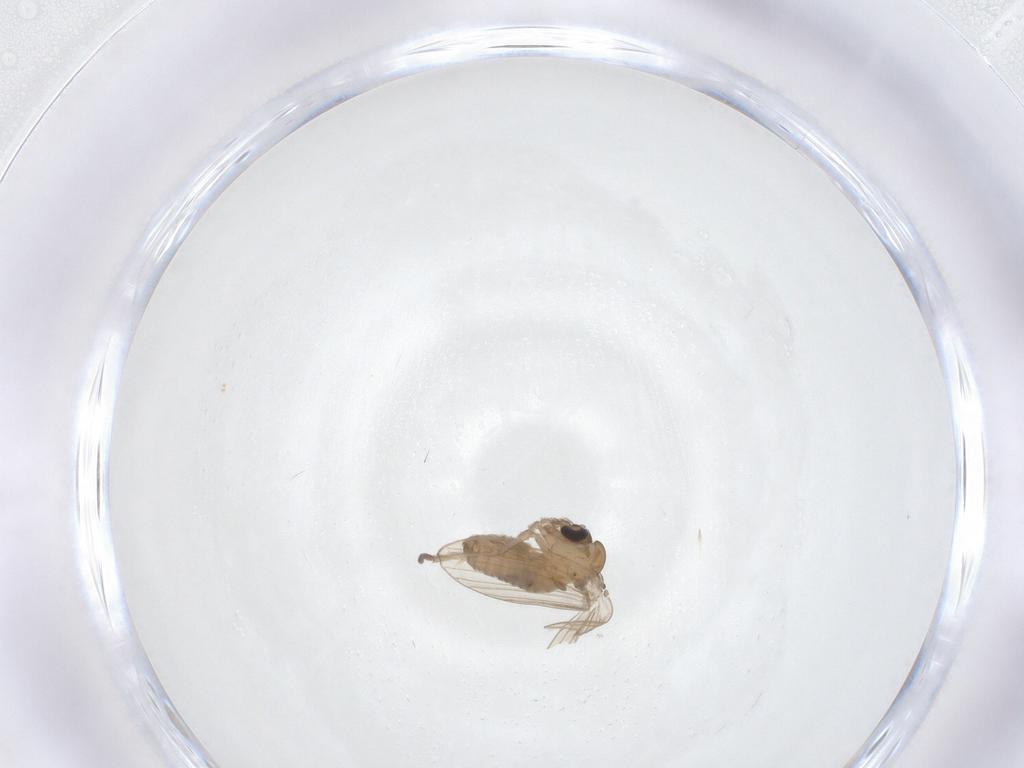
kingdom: Animalia
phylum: Arthropoda
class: Insecta
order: Diptera
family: Psychodidae
